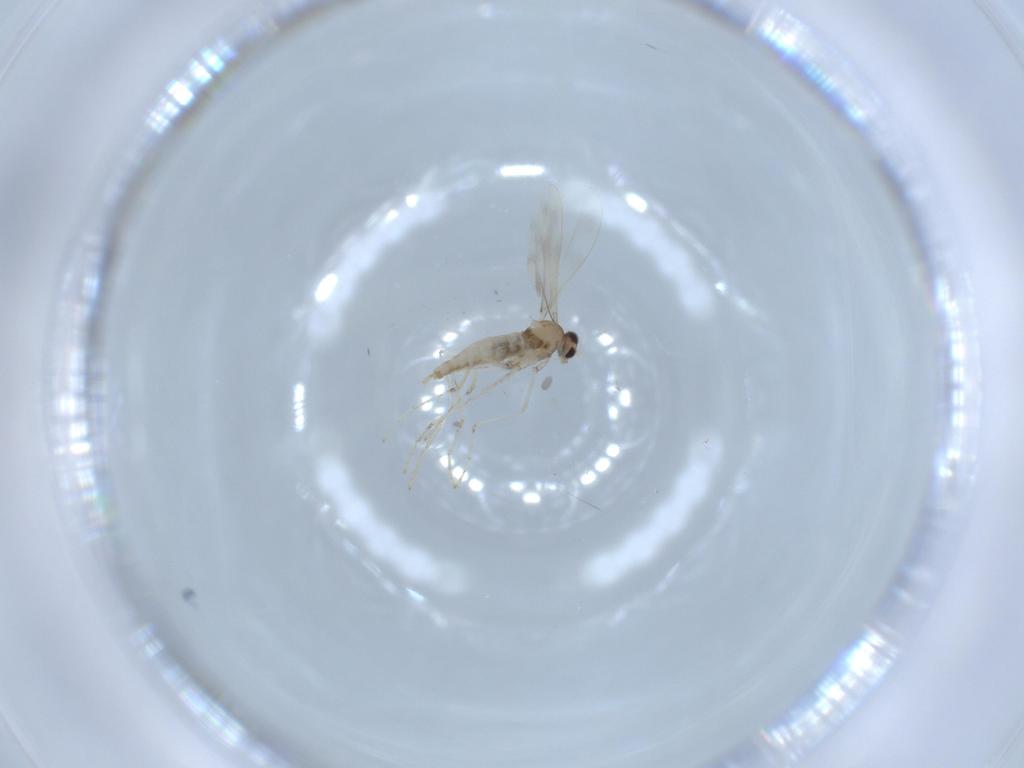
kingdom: Animalia
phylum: Arthropoda
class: Insecta
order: Diptera
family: Cecidomyiidae
